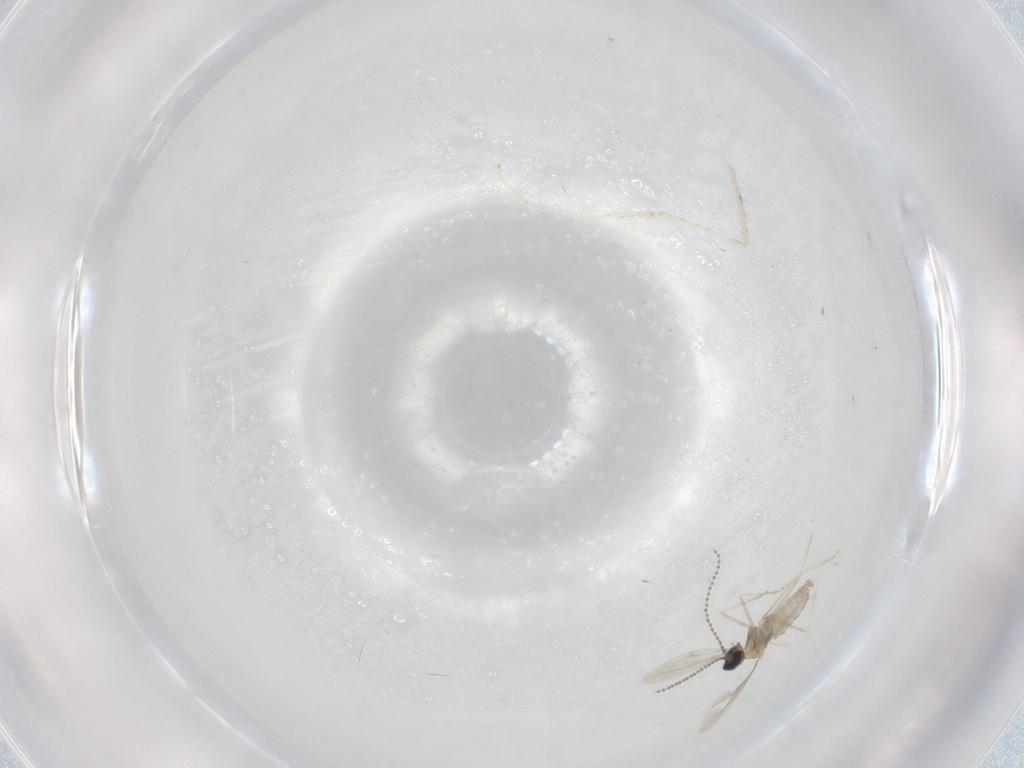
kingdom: Animalia
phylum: Arthropoda
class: Insecta
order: Diptera
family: Cecidomyiidae
